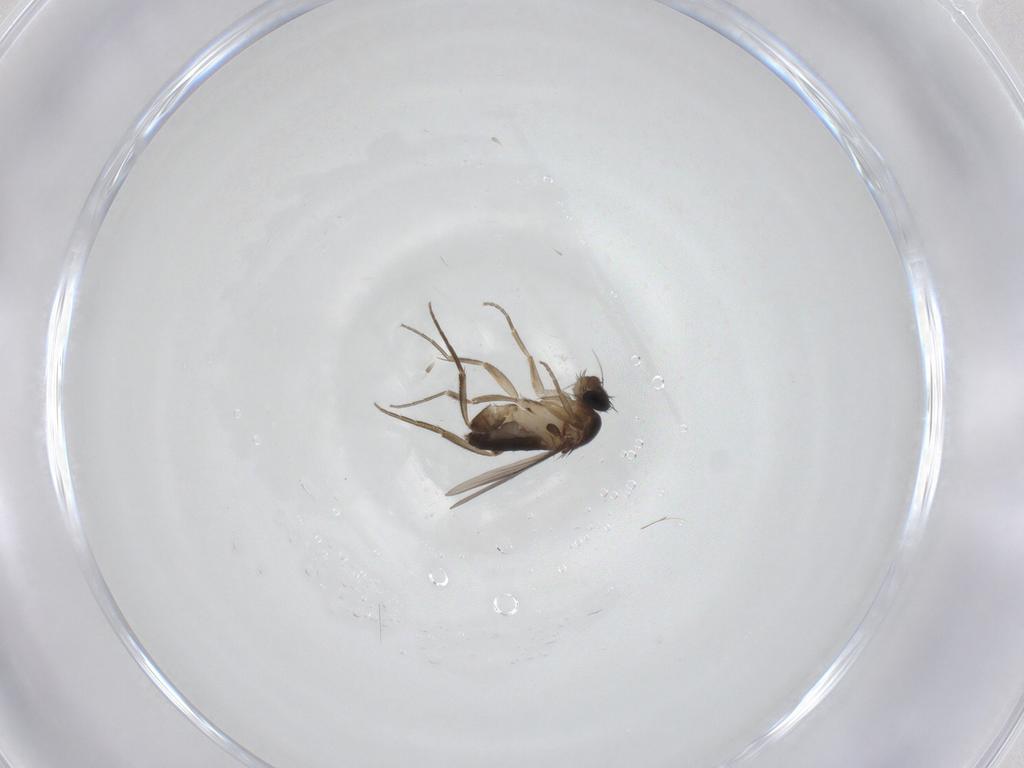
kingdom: Animalia
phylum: Arthropoda
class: Insecta
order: Diptera
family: Phoridae
